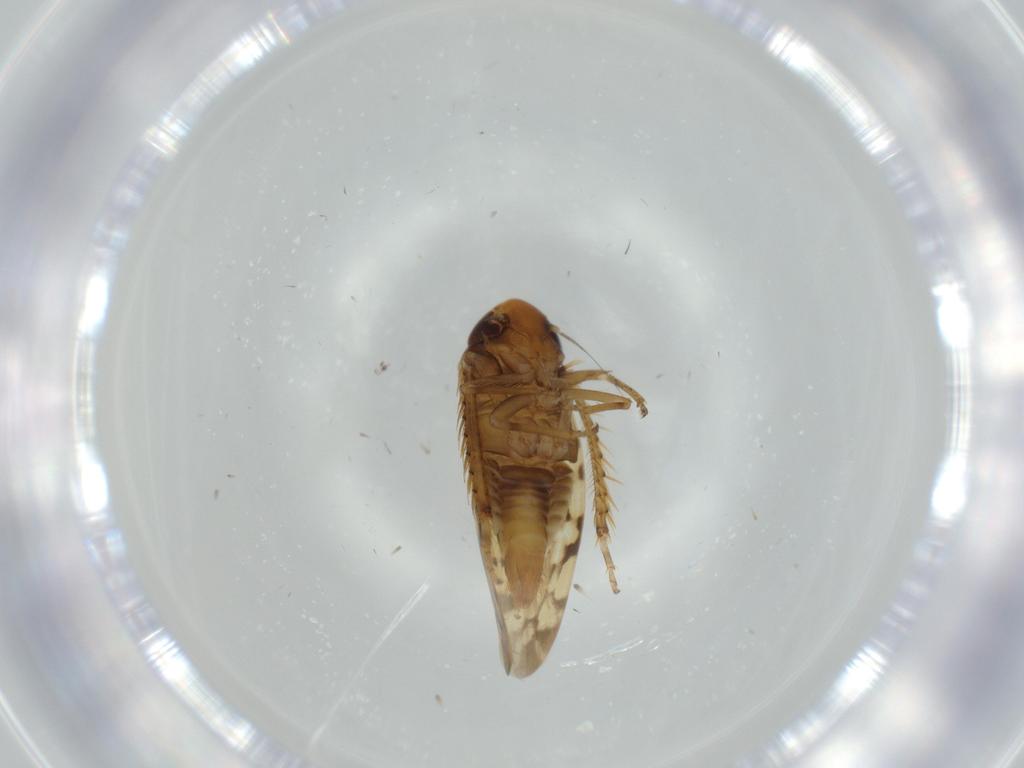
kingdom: Animalia
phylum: Arthropoda
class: Insecta
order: Hemiptera
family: Cicadellidae
